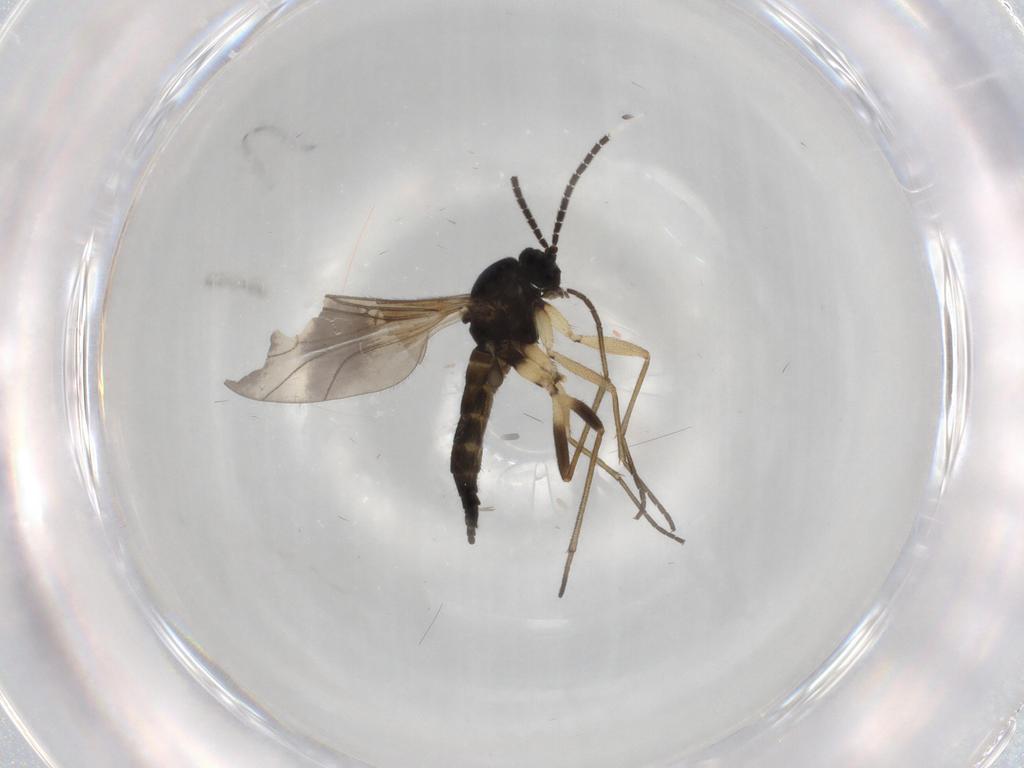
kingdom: Animalia
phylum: Arthropoda
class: Insecta
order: Diptera
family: Sciaridae
